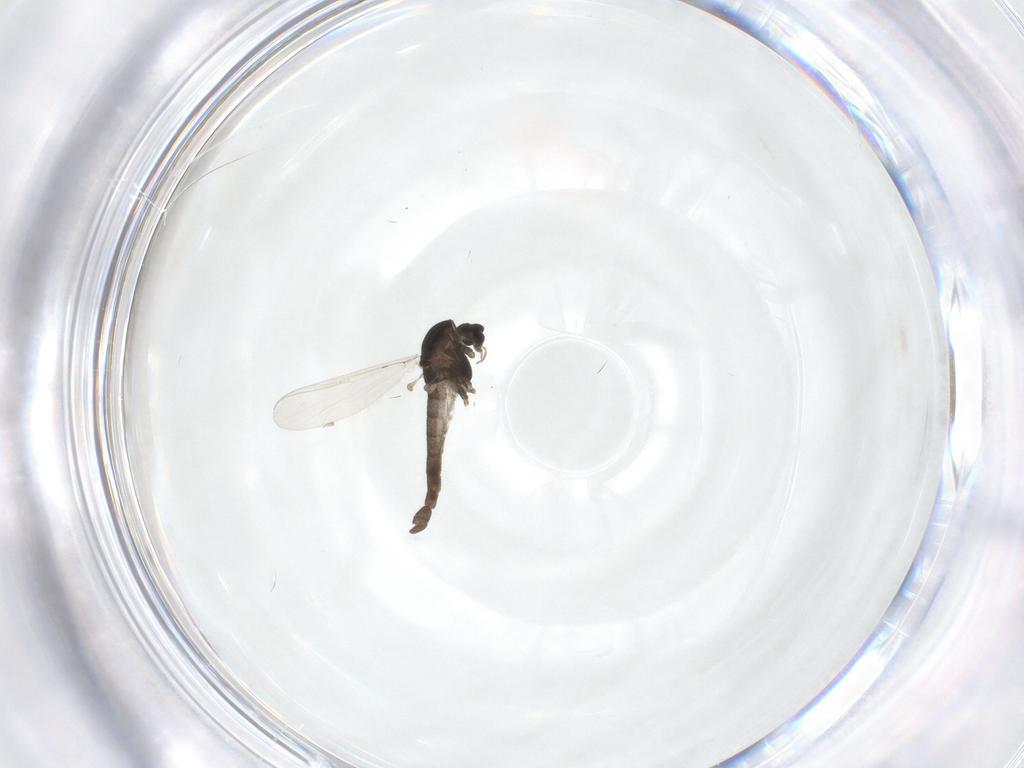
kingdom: Animalia
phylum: Arthropoda
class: Insecta
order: Diptera
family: Chironomidae
